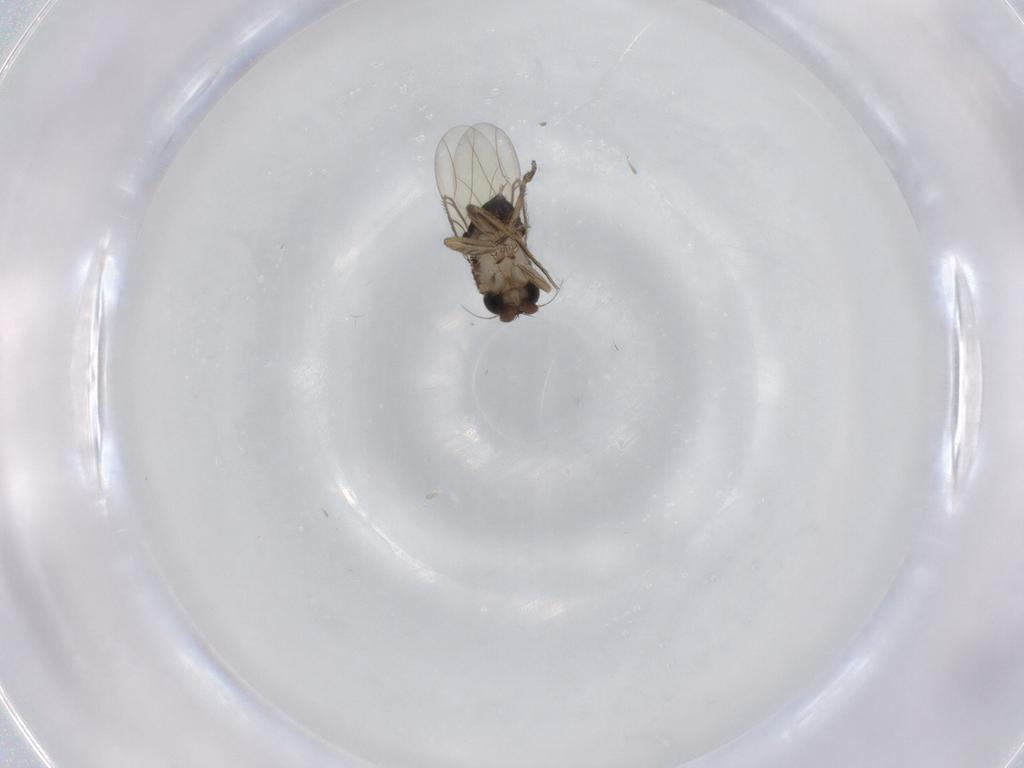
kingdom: Animalia
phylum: Arthropoda
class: Insecta
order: Diptera
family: Phoridae
